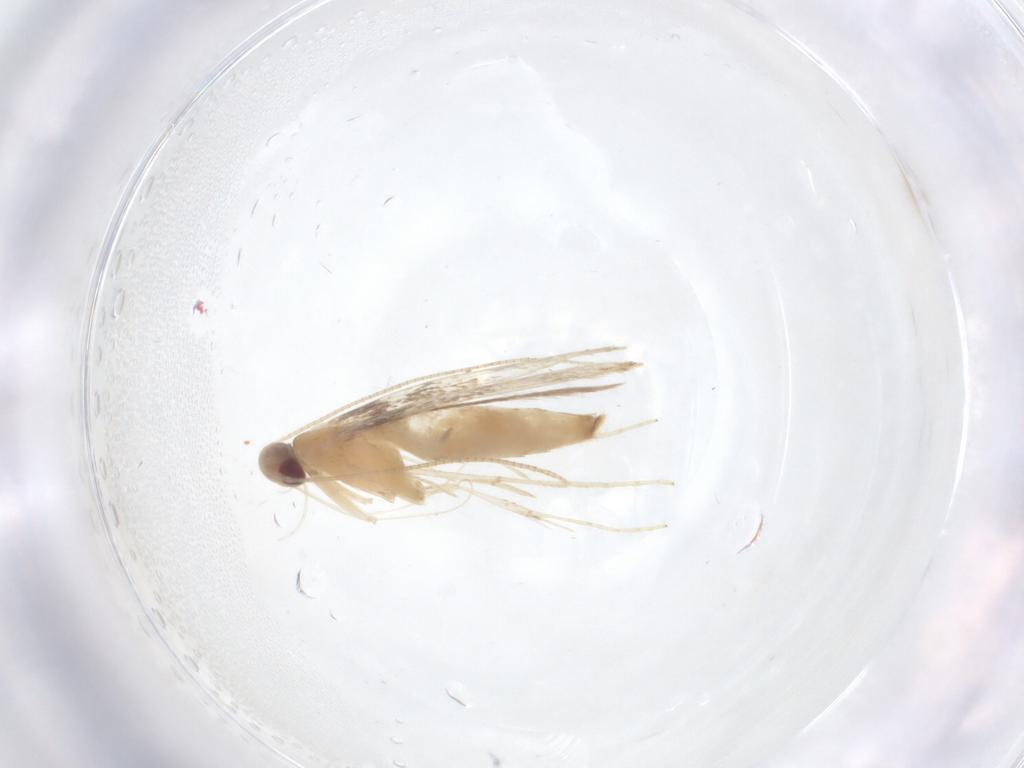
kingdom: Animalia
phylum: Arthropoda
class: Insecta
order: Lepidoptera
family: Gracillariidae
